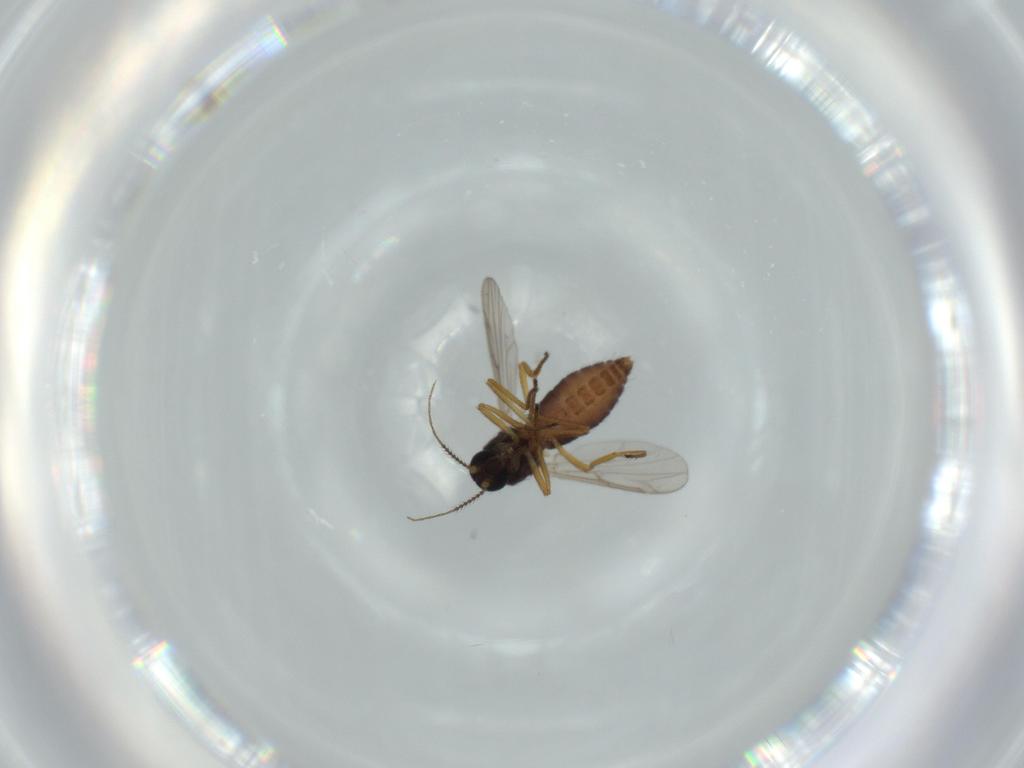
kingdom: Animalia
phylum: Arthropoda
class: Insecta
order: Diptera
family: Ceratopogonidae
